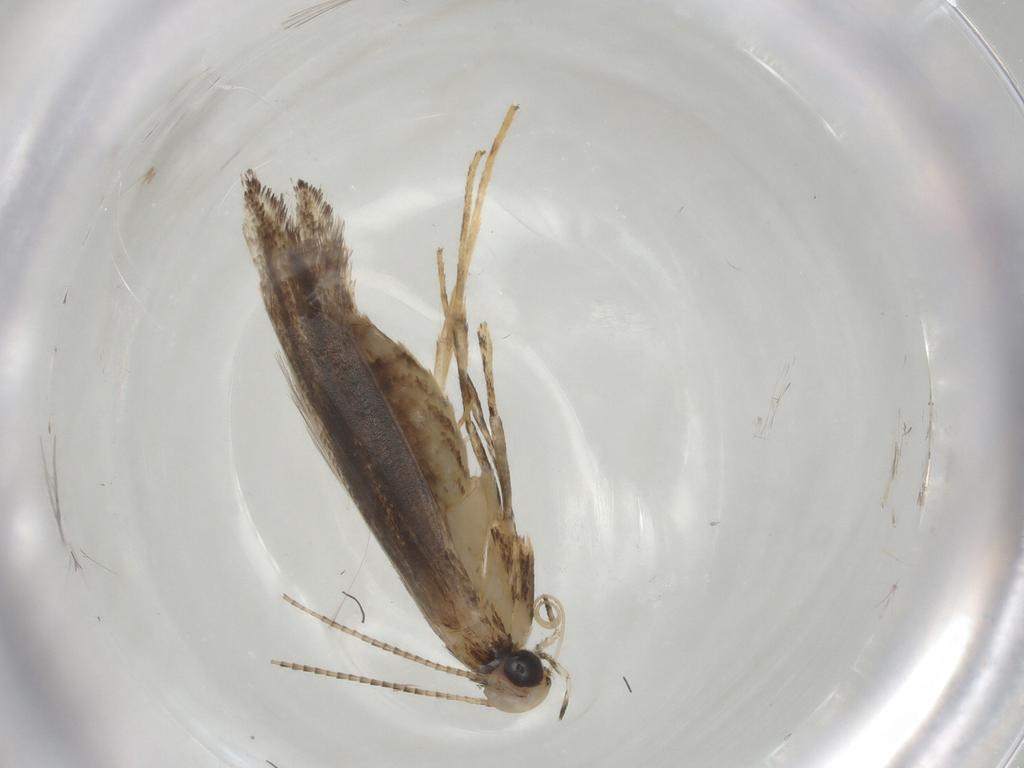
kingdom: Animalia
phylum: Arthropoda
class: Insecta
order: Lepidoptera
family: Gracillariidae
